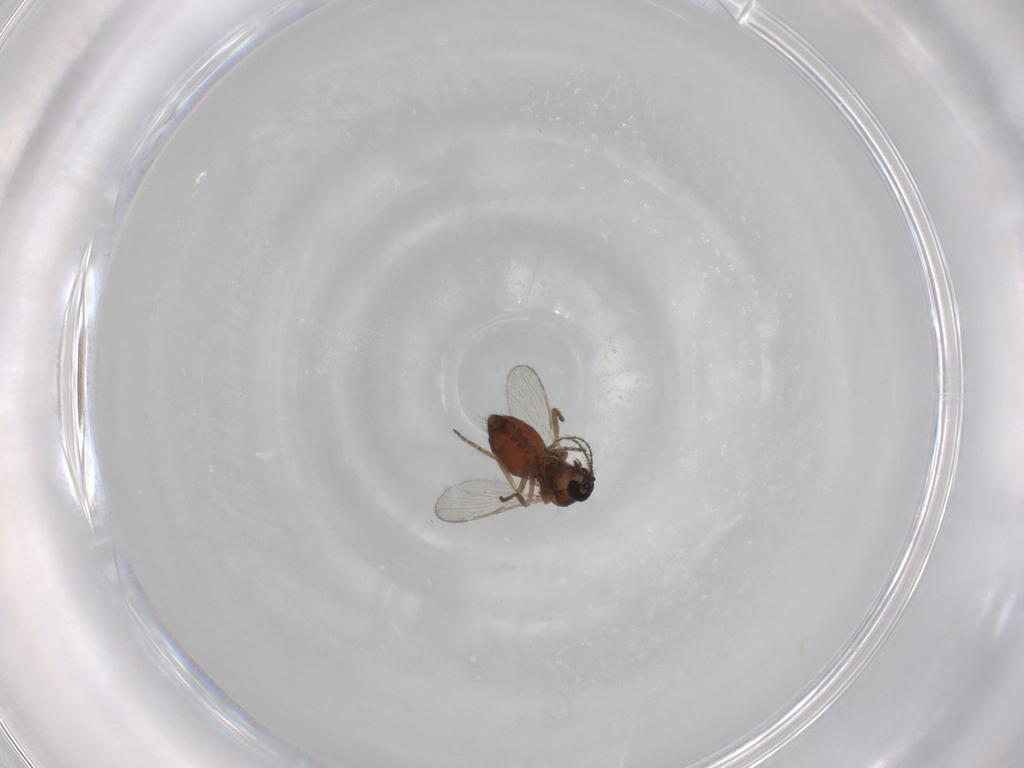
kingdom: Animalia
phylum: Arthropoda
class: Insecta
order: Diptera
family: Ceratopogonidae
